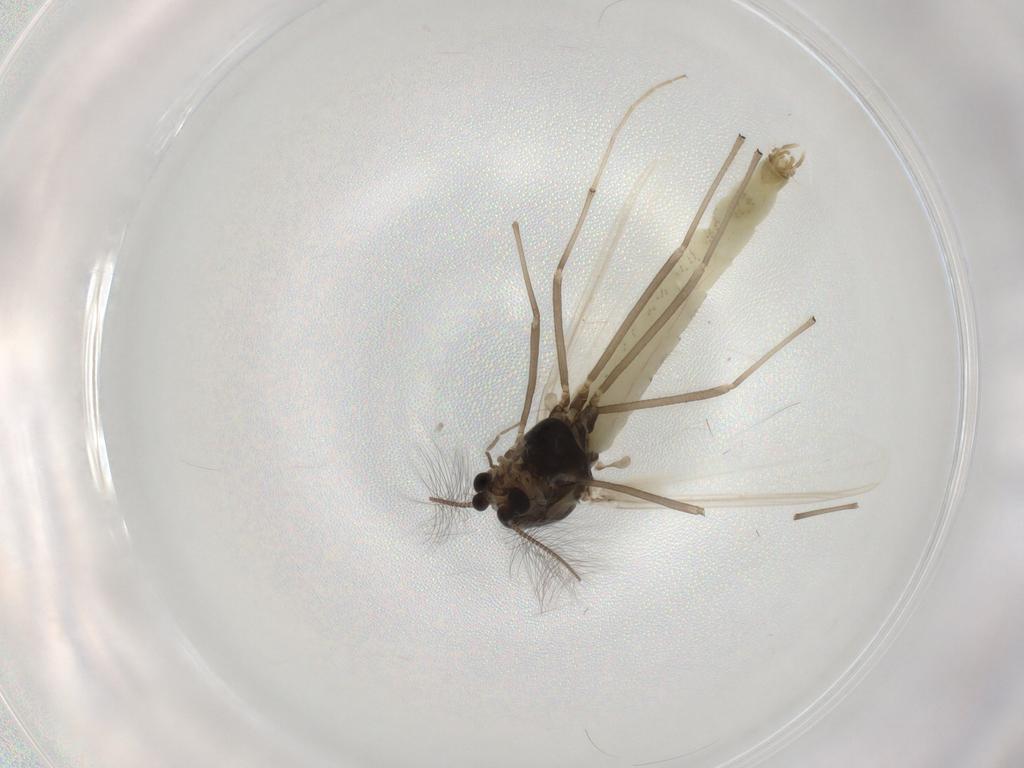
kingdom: Animalia
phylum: Arthropoda
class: Insecta
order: Diptera
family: Chironomidae
